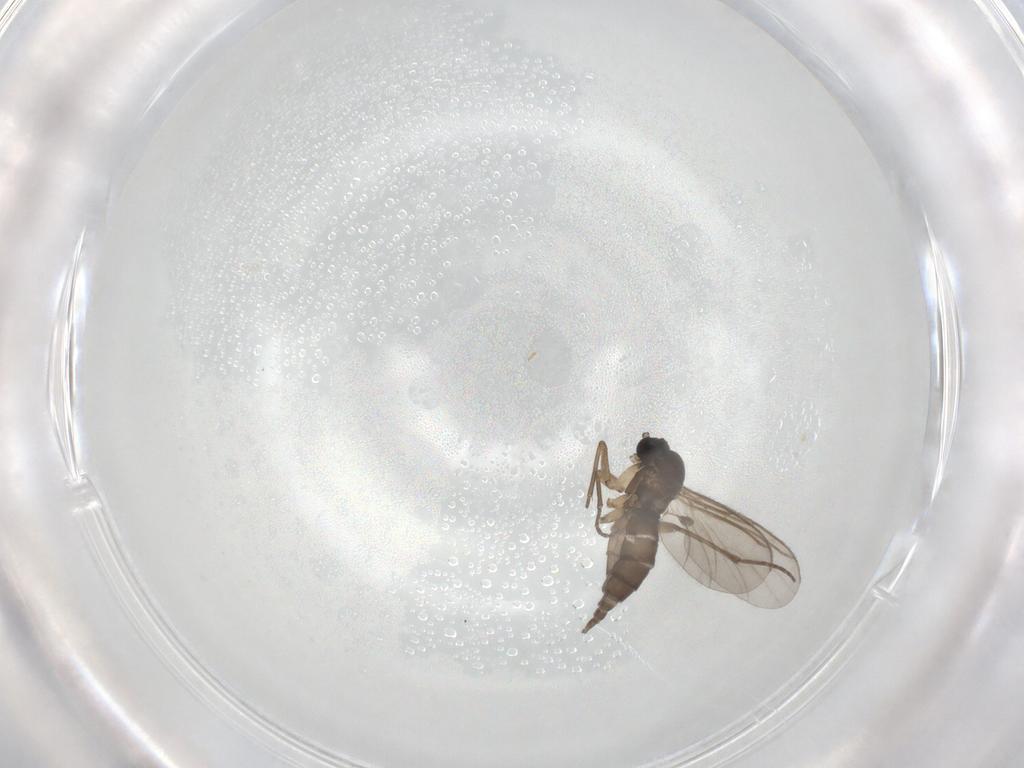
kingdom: Animalia
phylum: Arthropoda
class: Insecta
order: Diptera
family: Sciaridae
